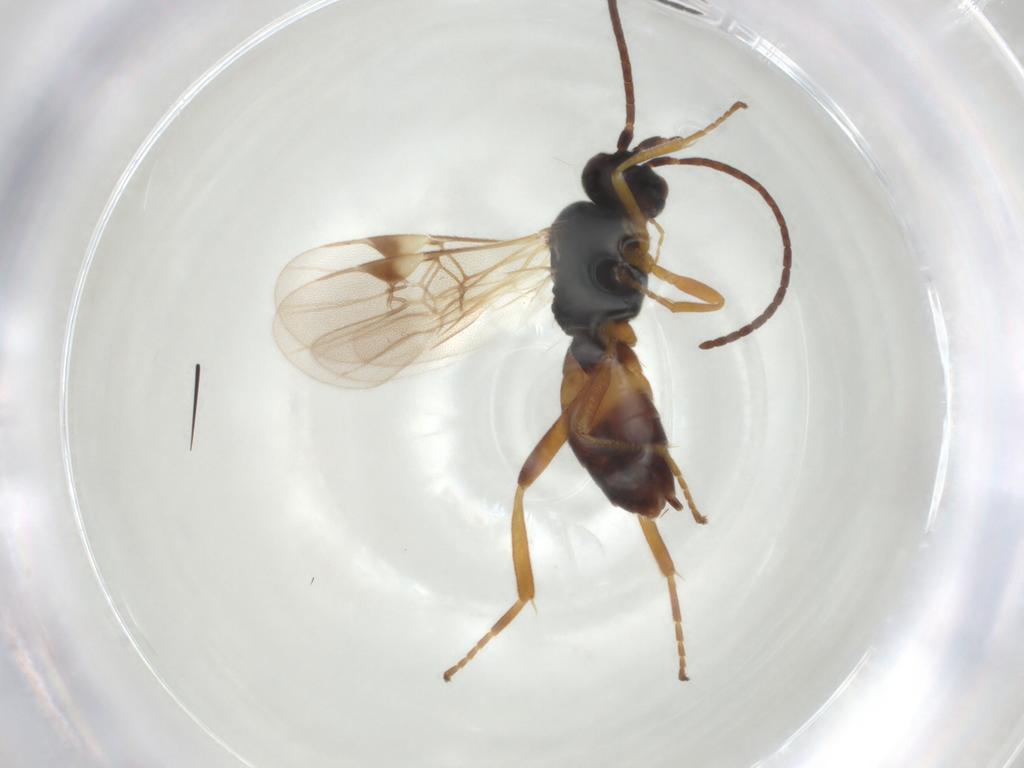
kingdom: Animalia
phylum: Arthropoda
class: Insecta
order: Hymenoptera
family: Braconidae
